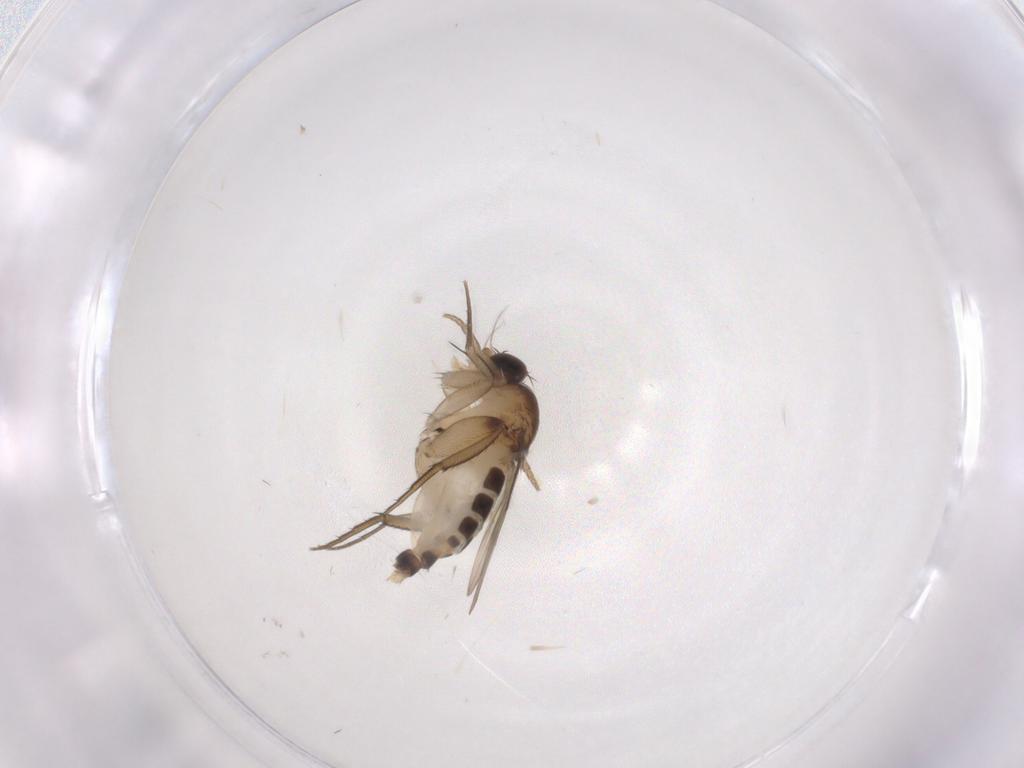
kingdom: Animalia
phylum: Arthropoda
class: Insecta
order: Diptera
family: Phoridae
